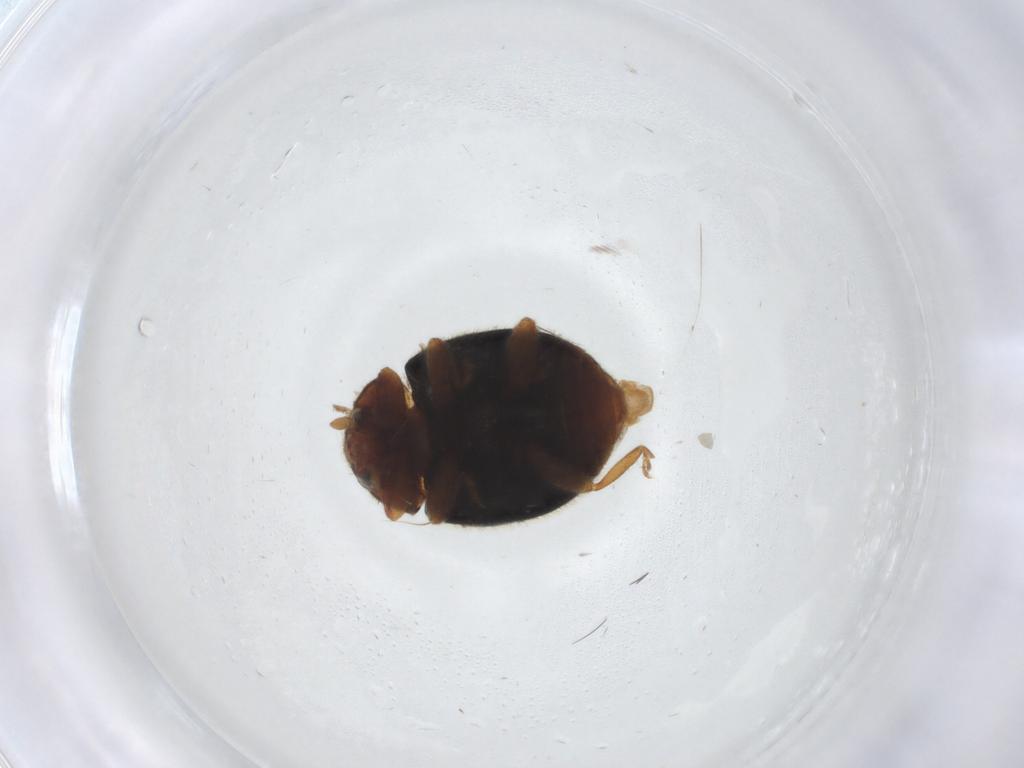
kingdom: Animalia
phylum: Arthropoda
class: Insecta
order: Coleoptera
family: Coccinellidae
